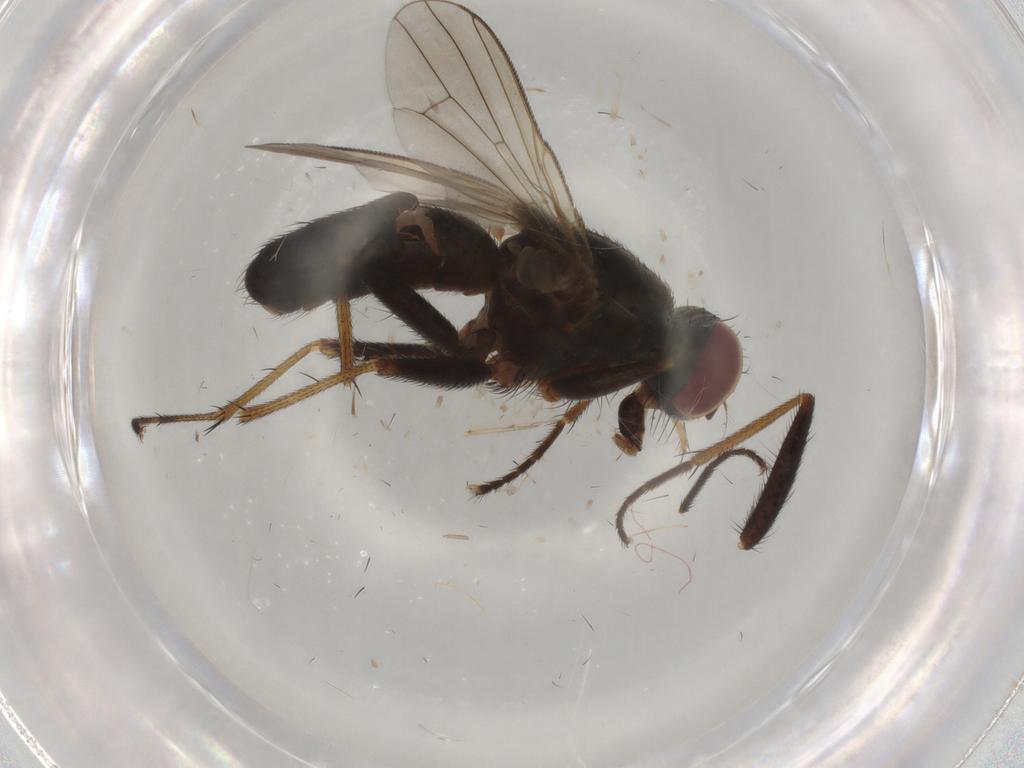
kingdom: Animalia
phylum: Arthropoda
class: Insecta
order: Diptera
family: Muscidae
